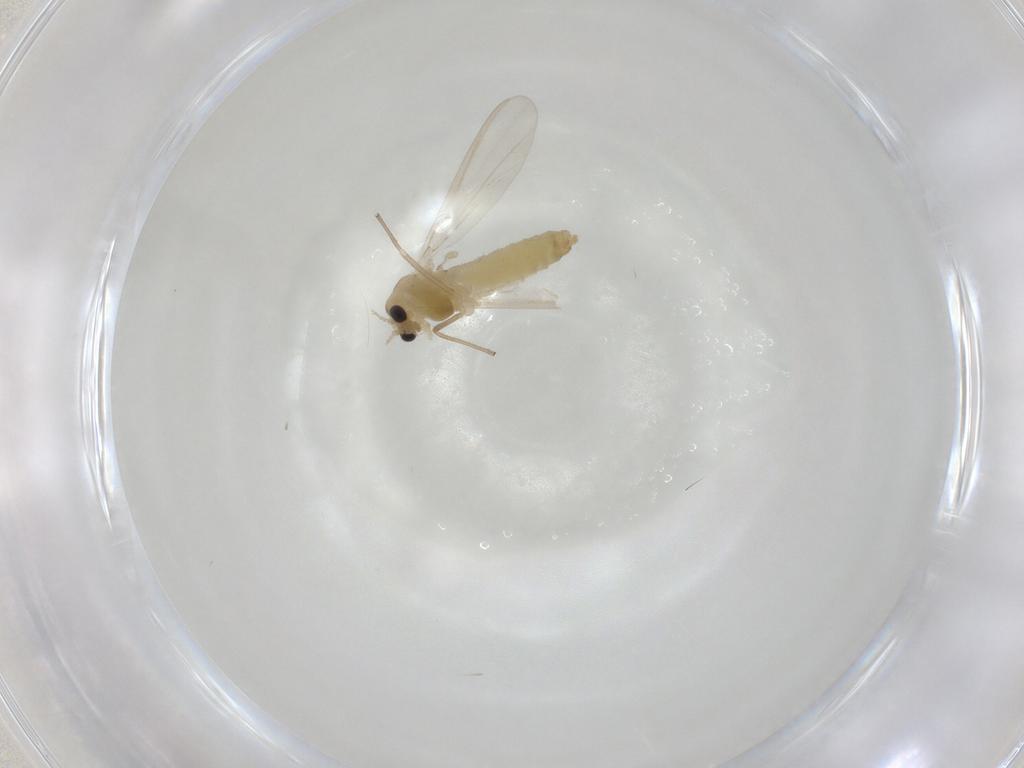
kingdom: Animalia
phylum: Arthropoda
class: Insecta
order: Diptera
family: Chironomidae
